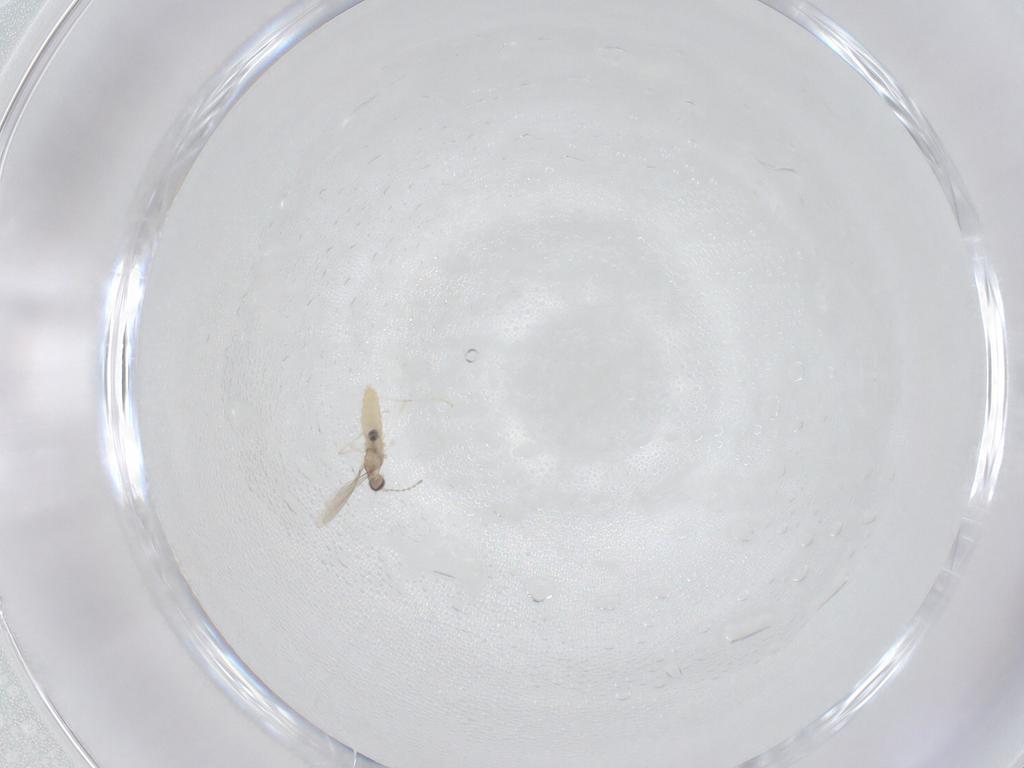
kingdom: Animalia
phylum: Arthropoda
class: Insecta
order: Diptera
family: Cecidomyiidae
